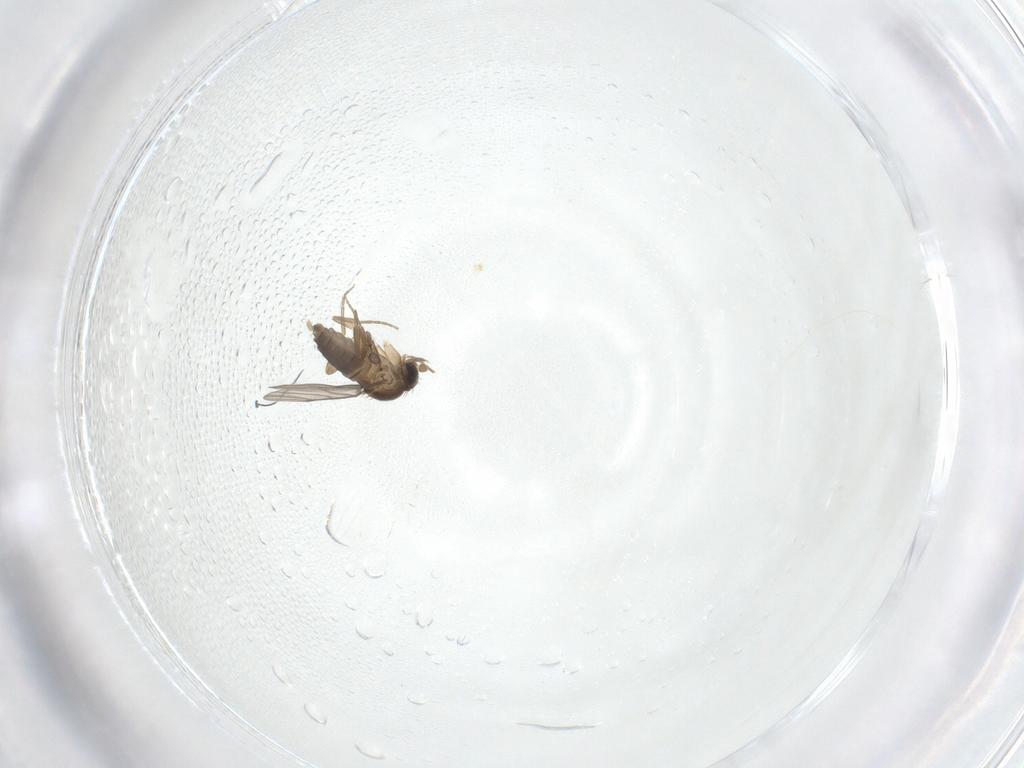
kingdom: Animalia
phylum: Arthropoda
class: Insecta
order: Diptera
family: Phoridae
